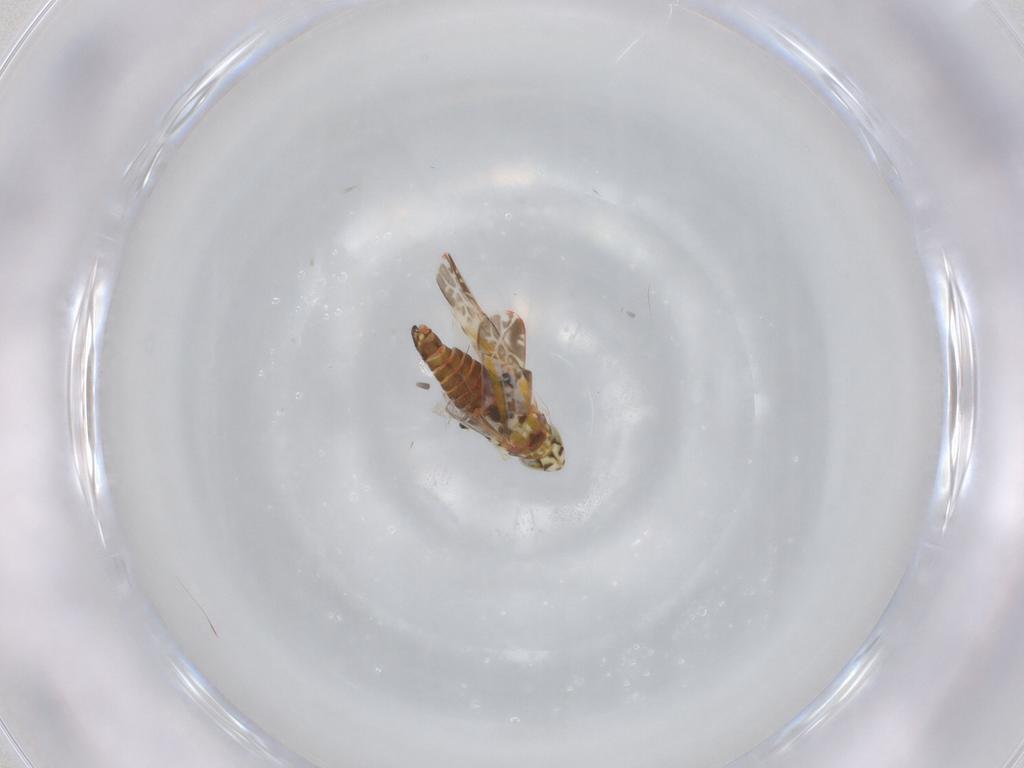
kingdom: Animalia
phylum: Arthropoda
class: Insecta
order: Hemiptera
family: Cicadellidae
